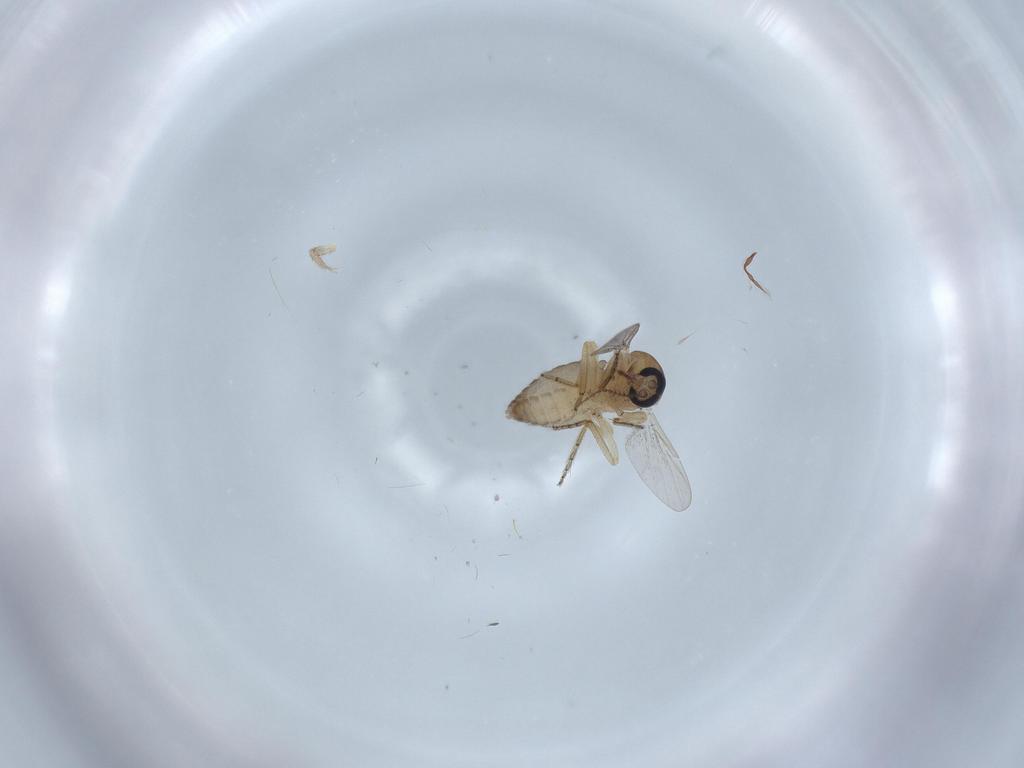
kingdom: Animalia
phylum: Arthropoda
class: Insecta
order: Diptera
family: Ceratopogonidae
